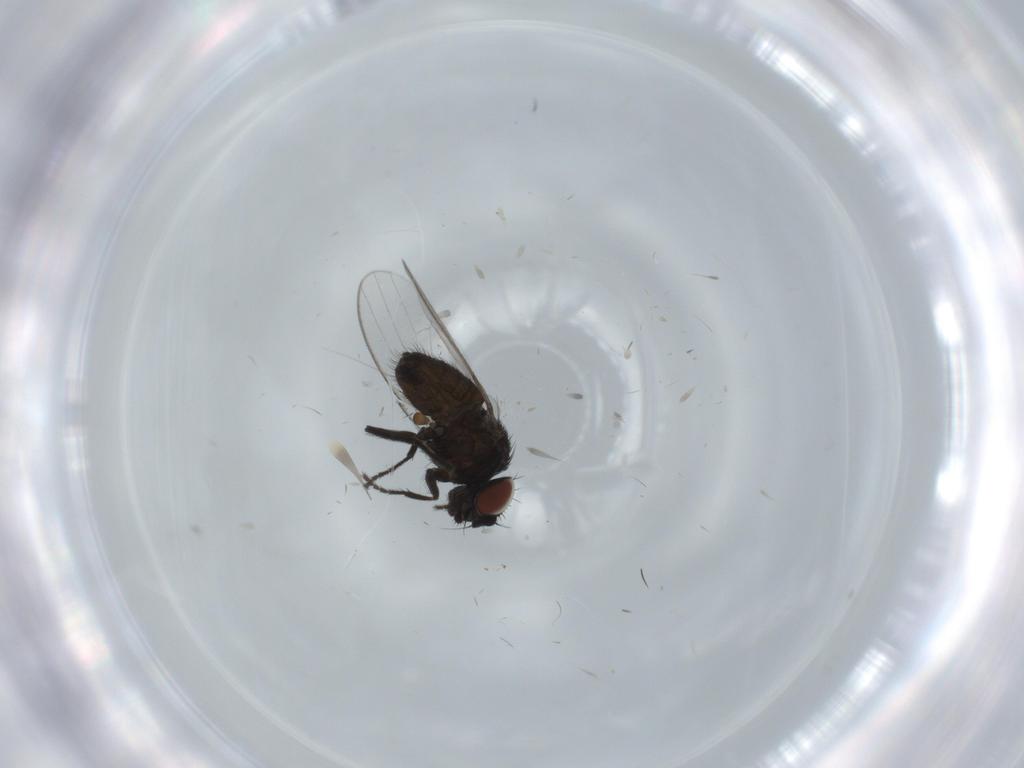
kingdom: Animalia
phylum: Arthropoda
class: Insecta
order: Diptera
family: Milichiidae
